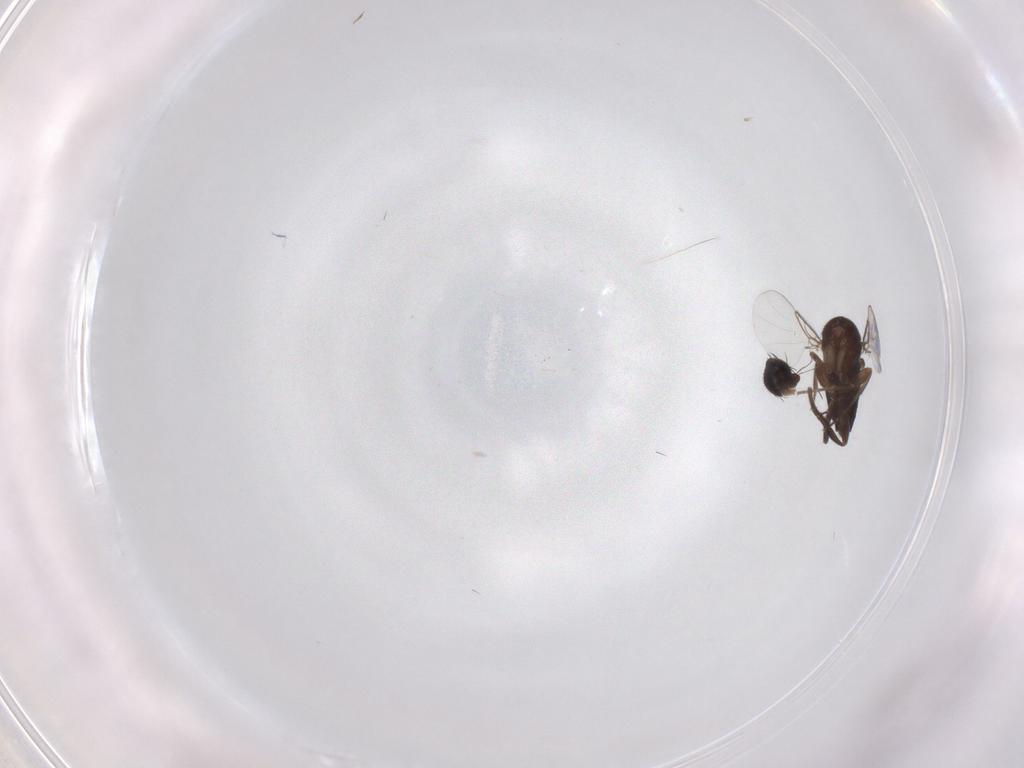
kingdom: Animalia
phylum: Arthropoda
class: Insecta
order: Diptera
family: Phoridae
